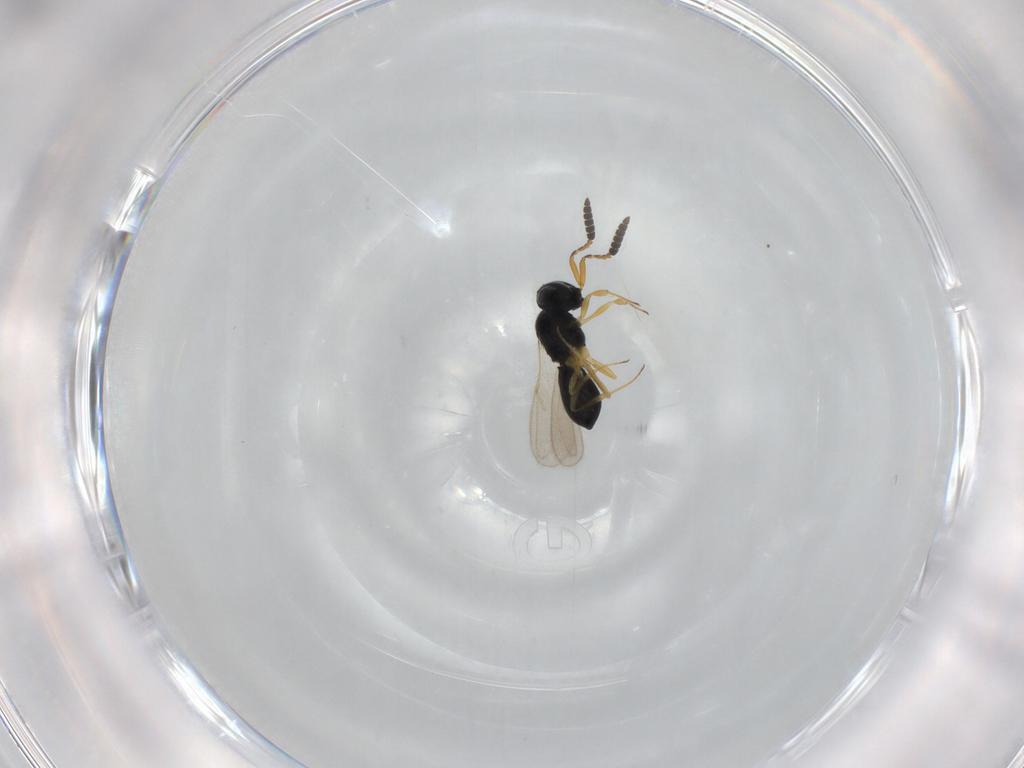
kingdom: Animalia
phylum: Arthropoda
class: Insecta
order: Hymenoptera
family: Scelionidae
